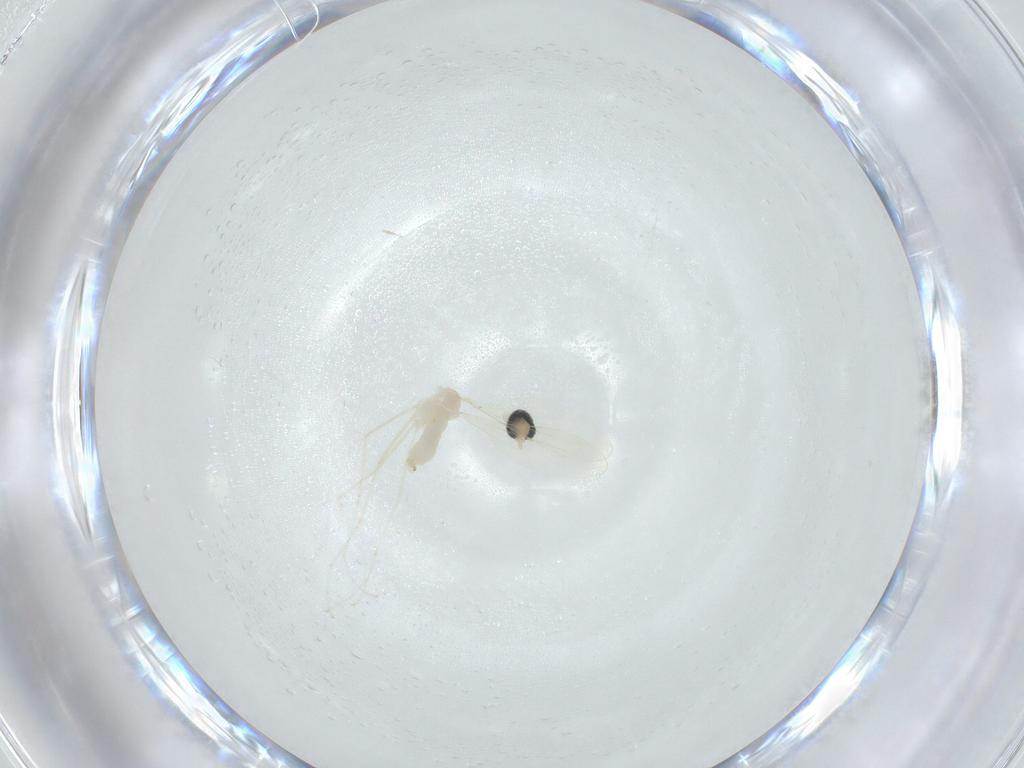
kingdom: Animalia
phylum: Arthropoda
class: Insecta
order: Diptera
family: Cecidomyiidae
